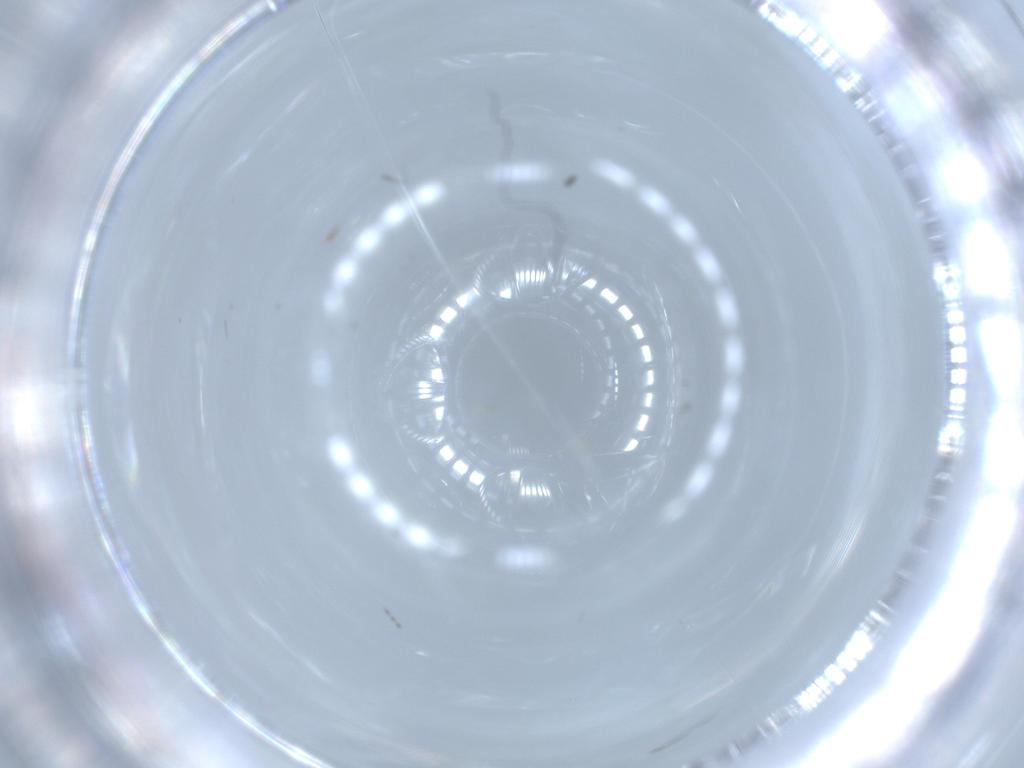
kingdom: Animalia
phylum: Arthropoda
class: Insecta
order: Diptera
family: Cecidomyiidae
